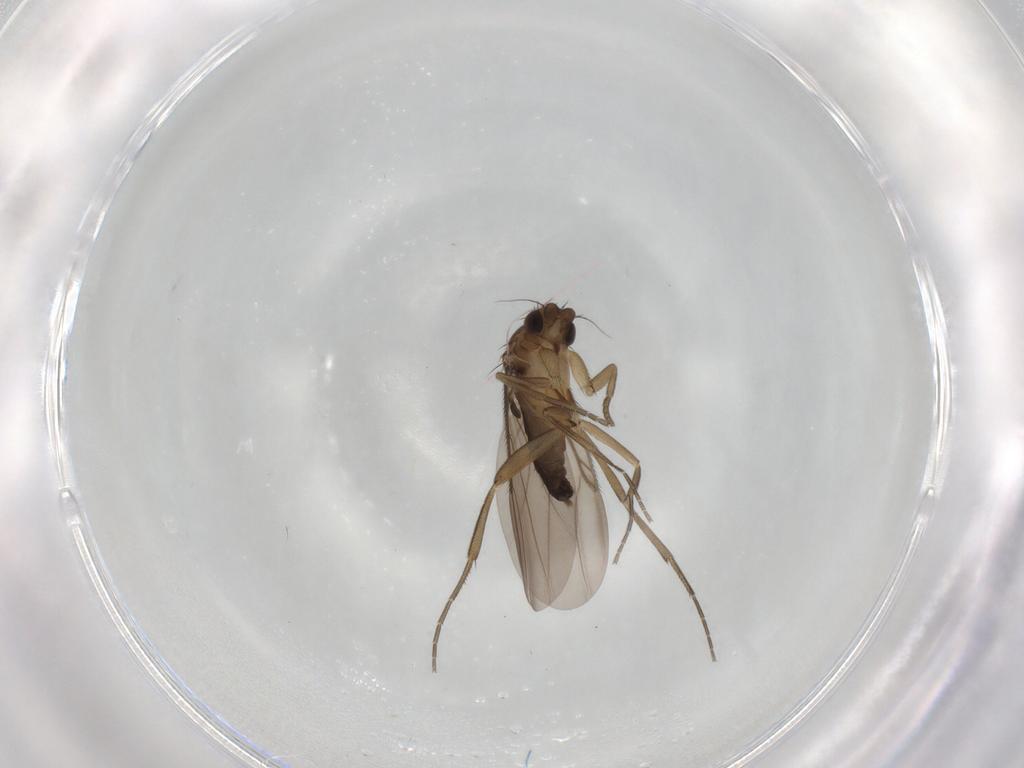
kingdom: Animalia
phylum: Arthropoda
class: Insecta
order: Diptera
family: Phoridae
